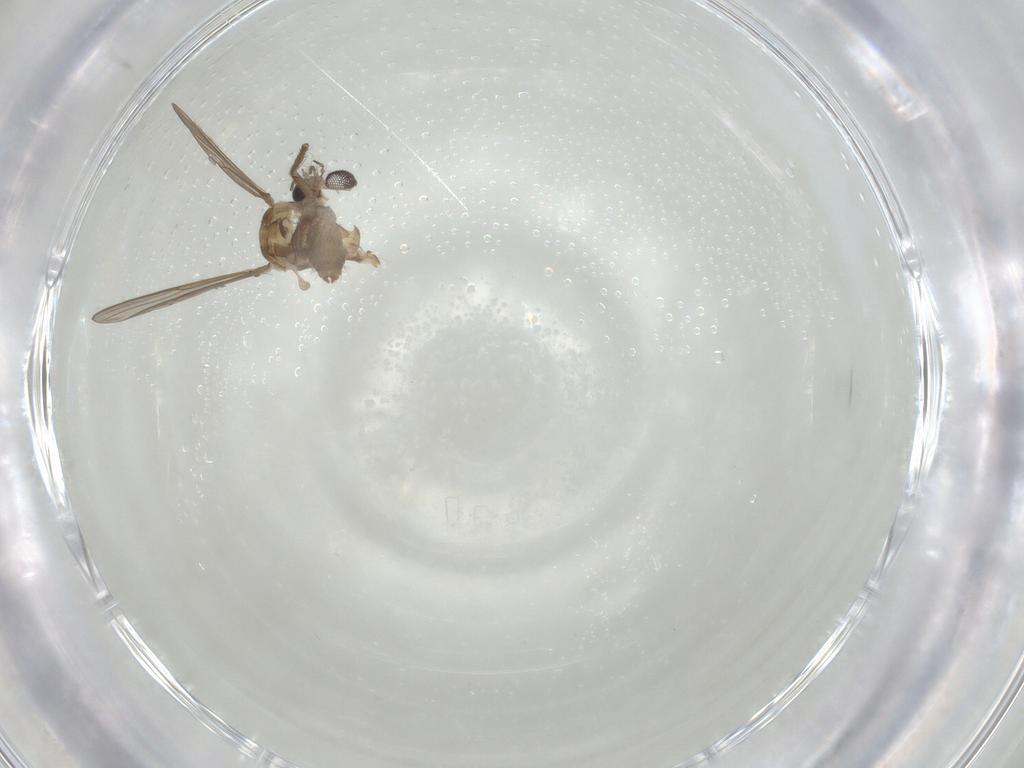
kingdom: Animalia
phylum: Arthropoda
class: Insecta
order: Diptera
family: Chironomidae
